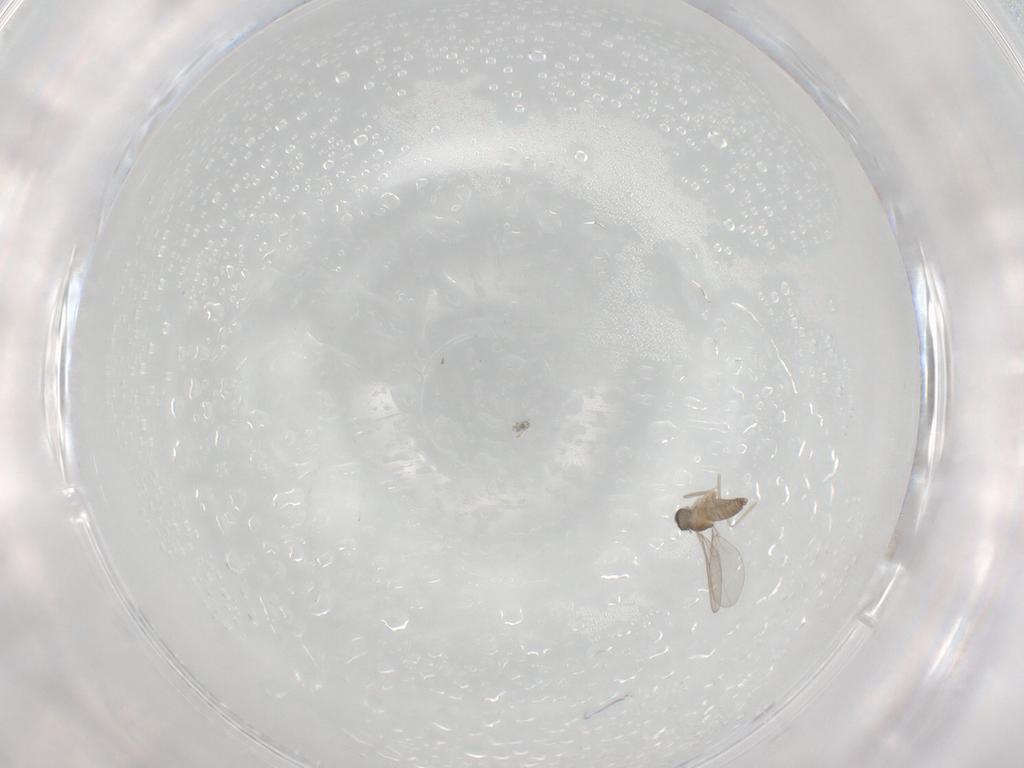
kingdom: Animalia
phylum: Arthropoda
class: Insecta
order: Diptera
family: Cecidomyiidae
